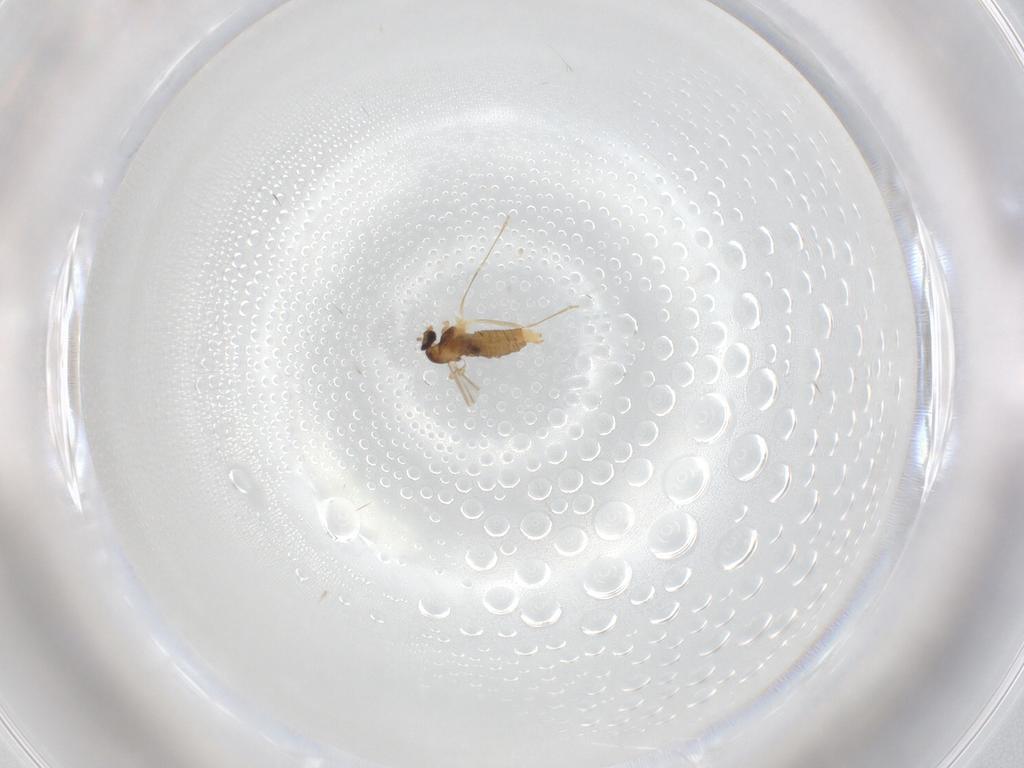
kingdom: Animalia
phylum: Arthropoda
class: Insecta
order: Diptera
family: Cecidomyiidae
